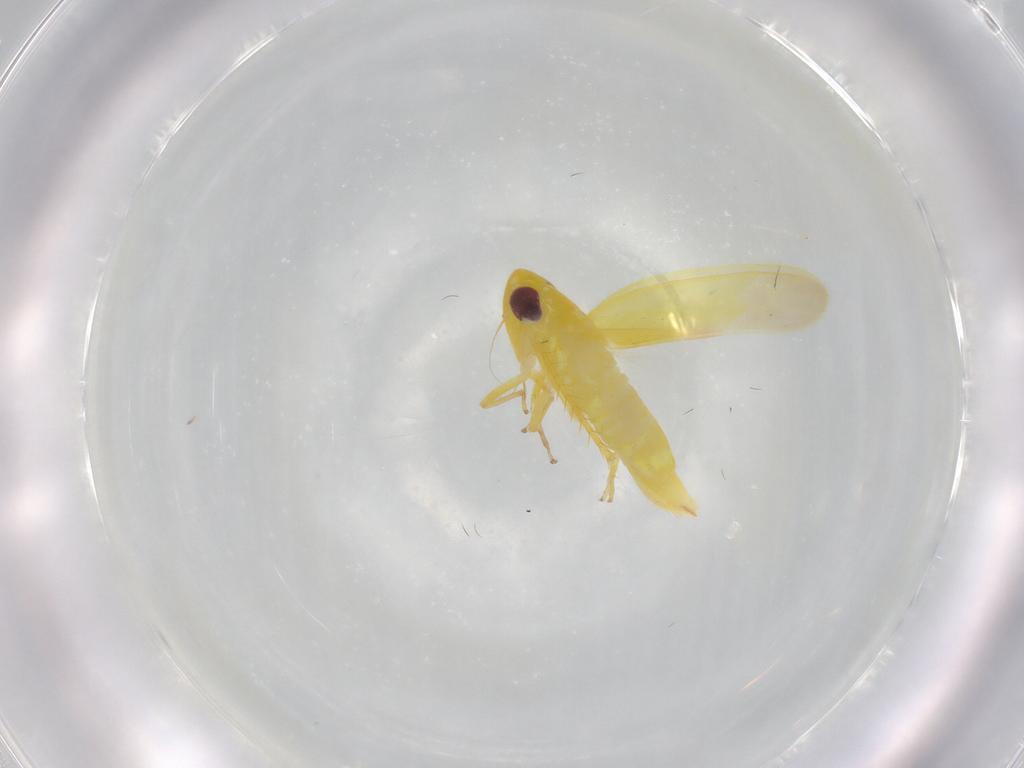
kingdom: Animalia
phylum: Arthropoda
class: Insecta
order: Hemiptera
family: Cicadellidae
